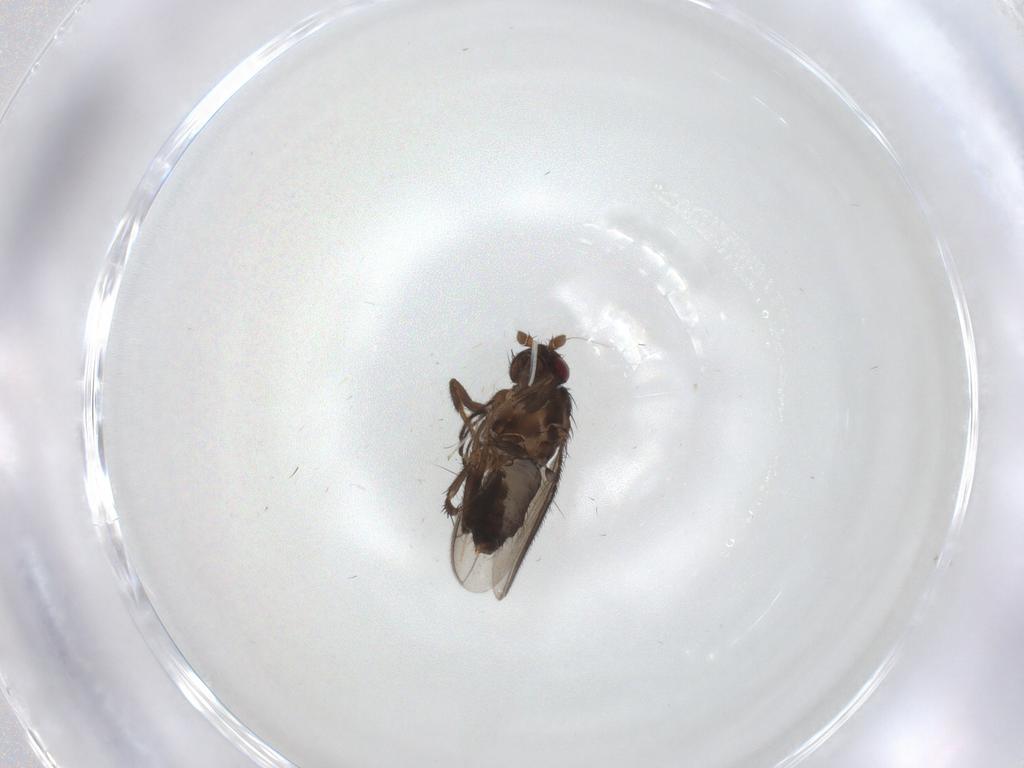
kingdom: Animalia
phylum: Arthropoda
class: Insecta
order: Diptera
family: Sphaeroceridae
